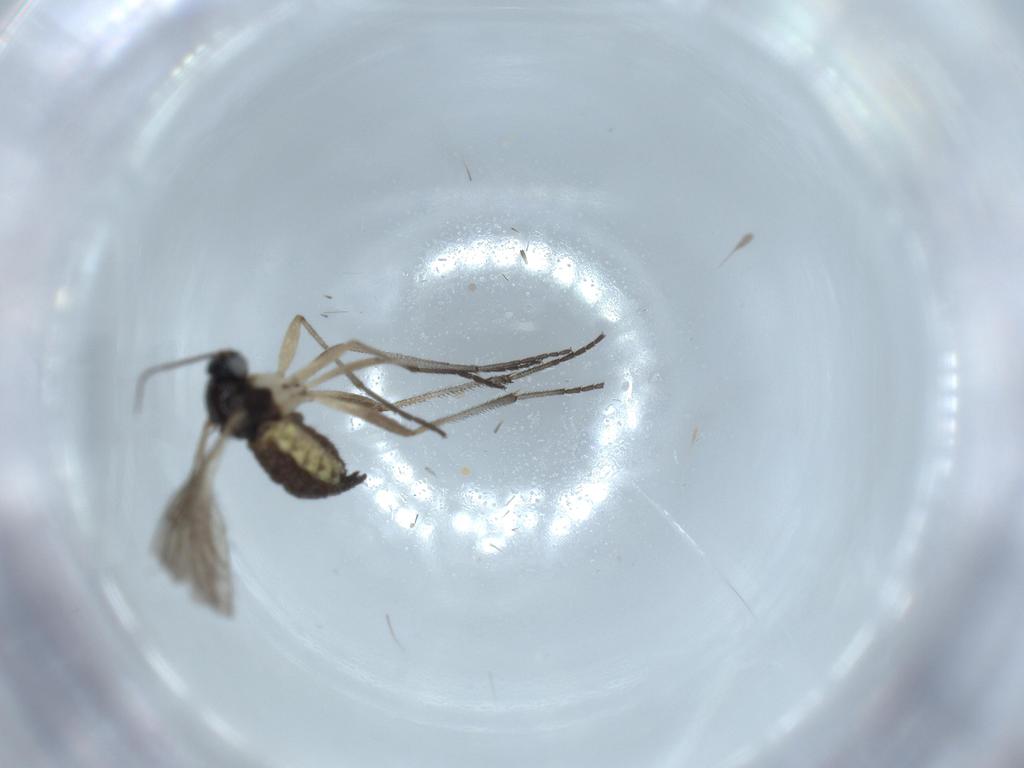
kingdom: Animalia
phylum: Arthropoda
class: Insecta
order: Diptera
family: Sciaridae
